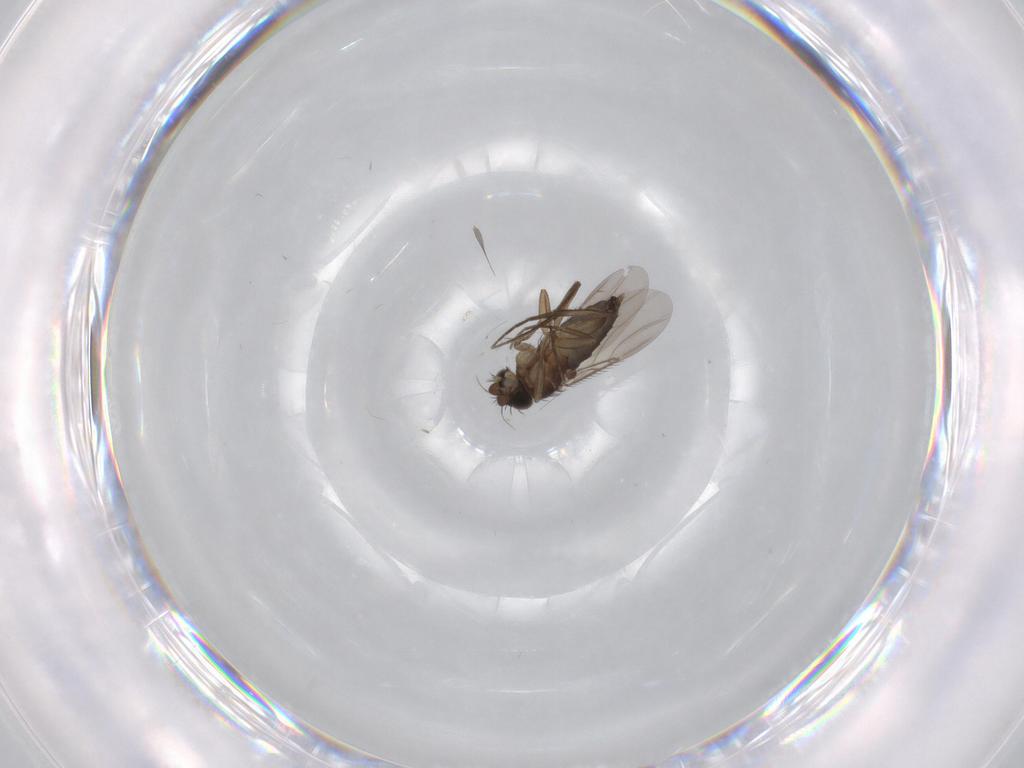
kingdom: Animalia
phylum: Arthropoda
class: Insecta
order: Diptera
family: Phoridae
